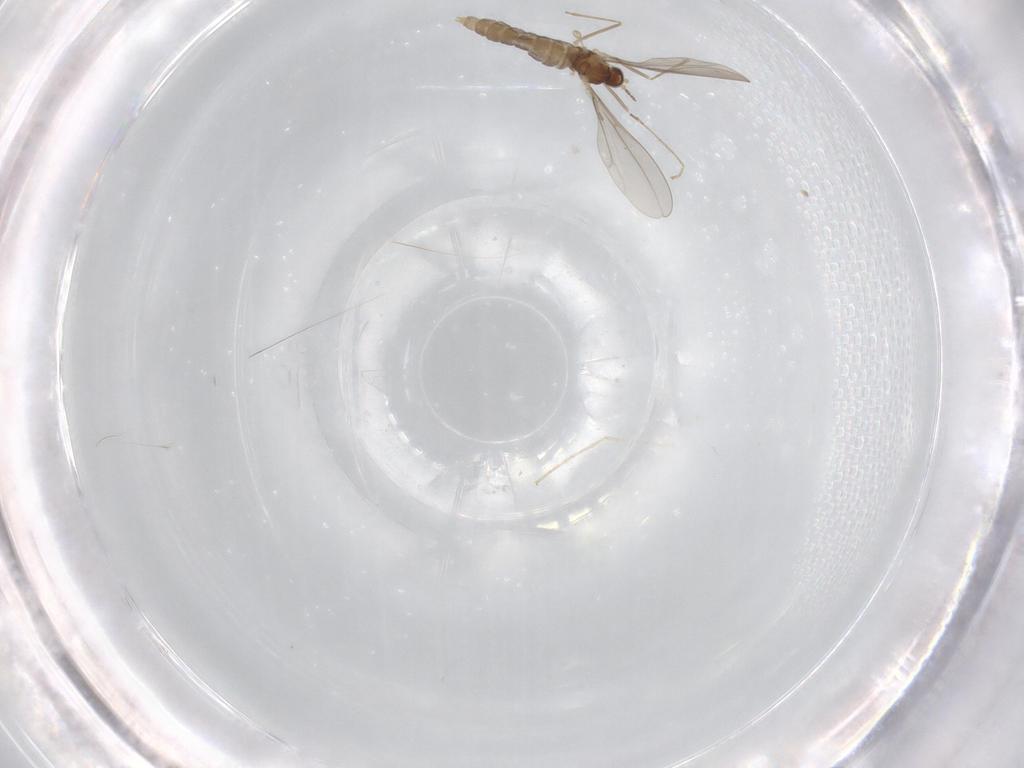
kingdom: Animalia
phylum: Arthropoda
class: Insecta
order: Diptera
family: Cecidomyiidae
